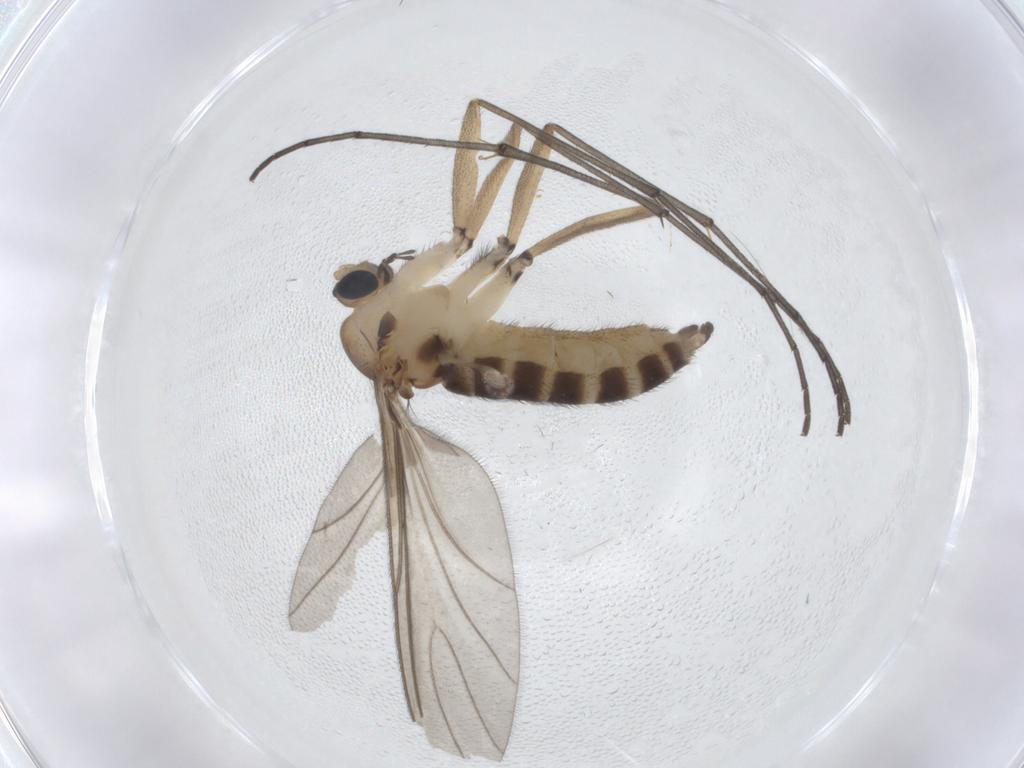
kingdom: Animalia
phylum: Arthropoda
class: Insecta
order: Diptera
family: Sciaridae
